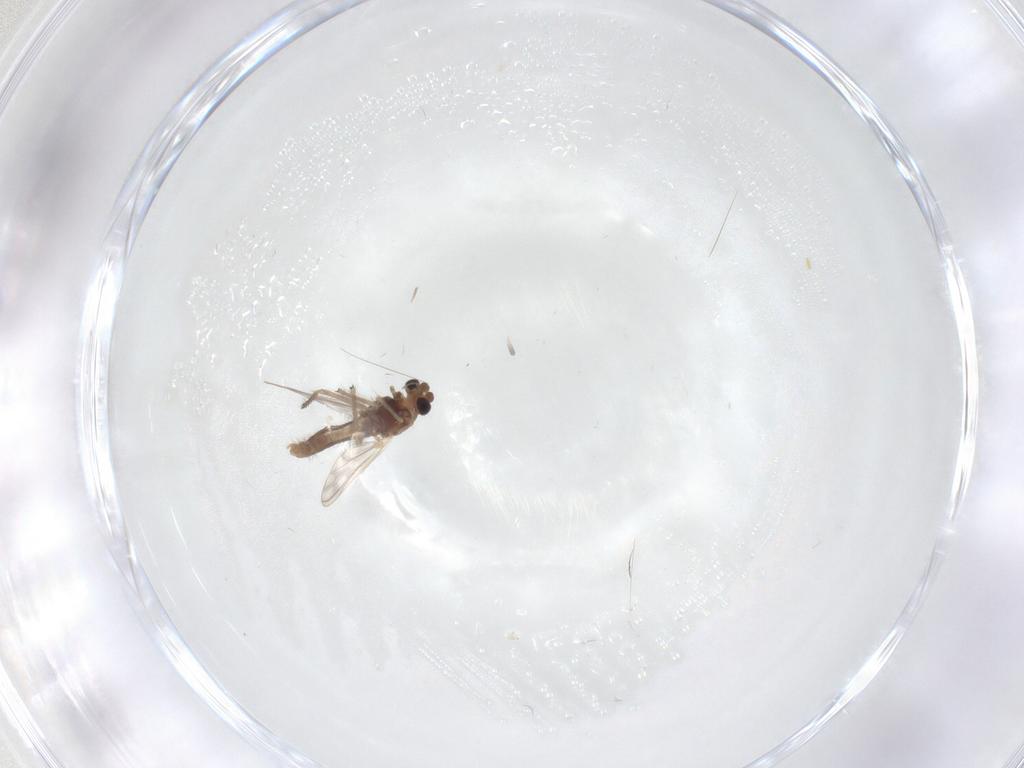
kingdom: Animalia
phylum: Arthropoda
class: Insecta
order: Diptera
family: Chironomidae
